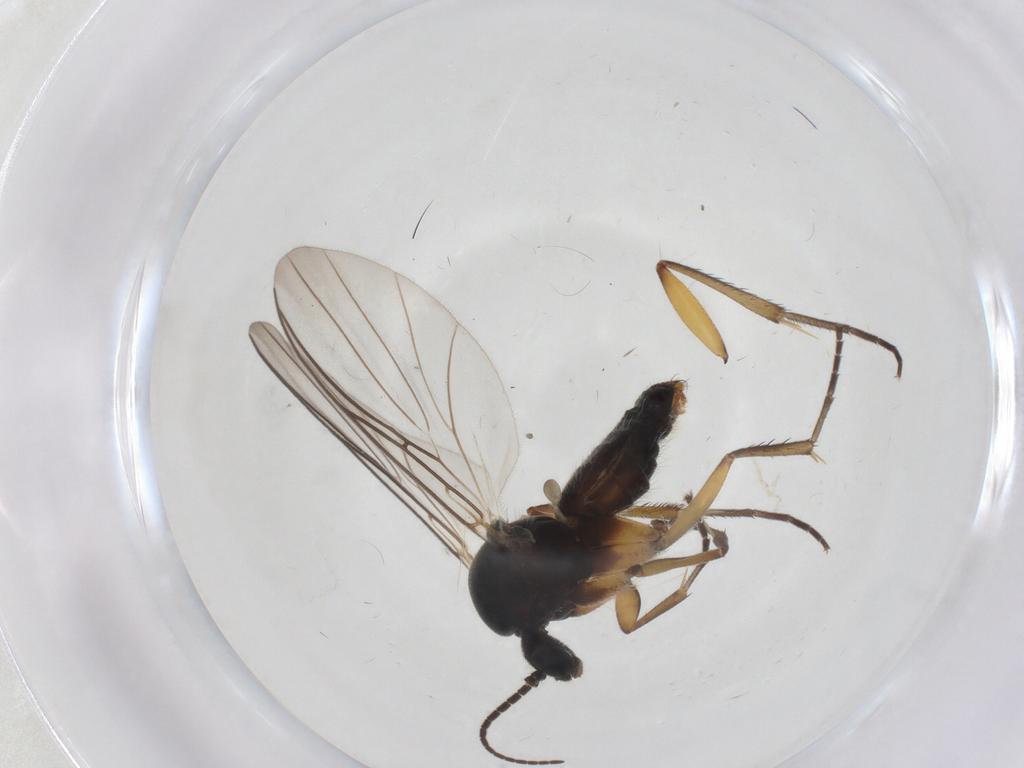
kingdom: Animalia
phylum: Arthropoda
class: Insecta
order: Diptera
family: Mycetophilidae
